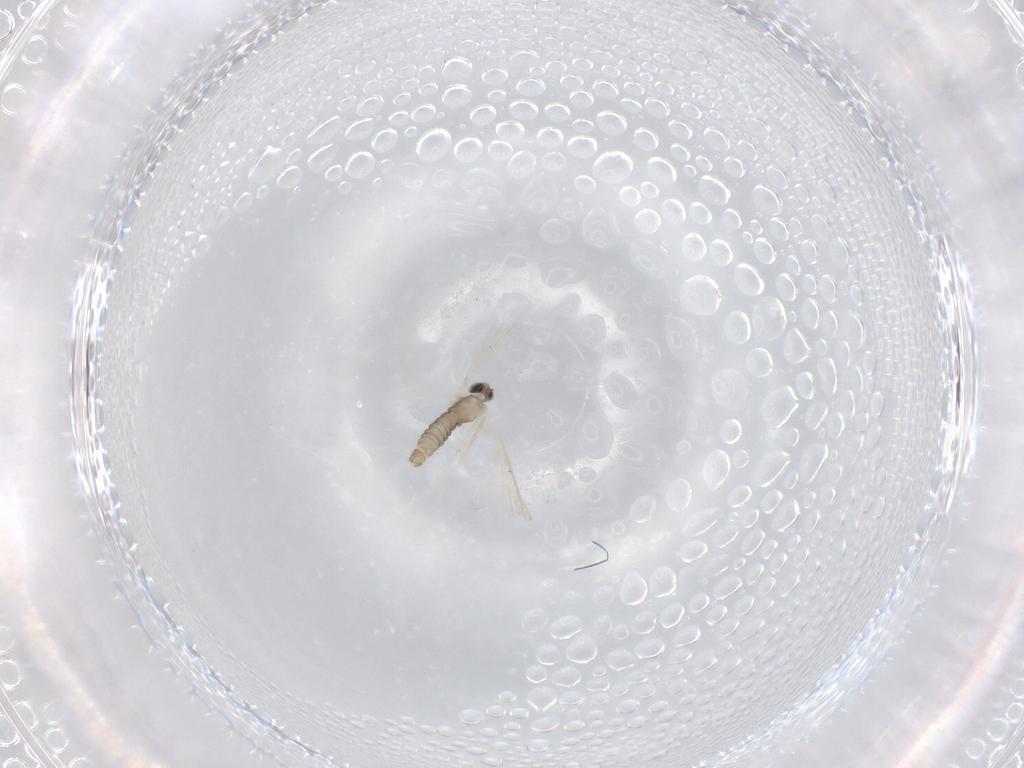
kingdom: Animalia
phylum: Arthropoda
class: Insecta
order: Diptera
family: Cecidomyiidae
